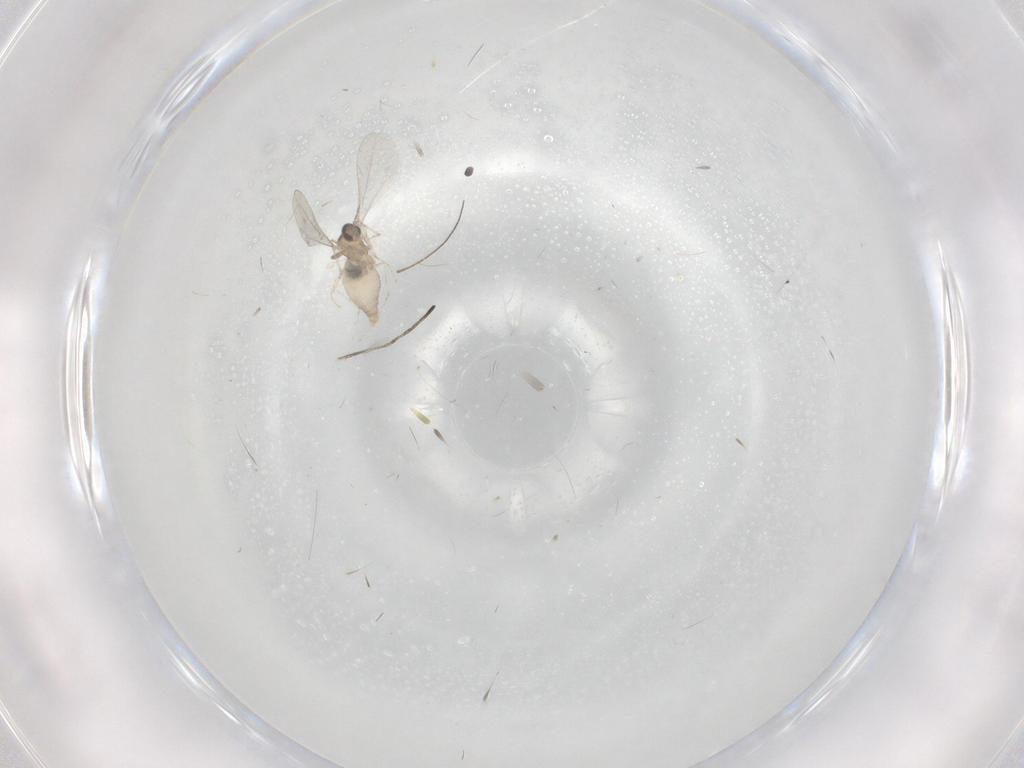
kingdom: Animalia
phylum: Arthropoda
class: Insecta
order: Diptera
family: Cecidomyiidae
